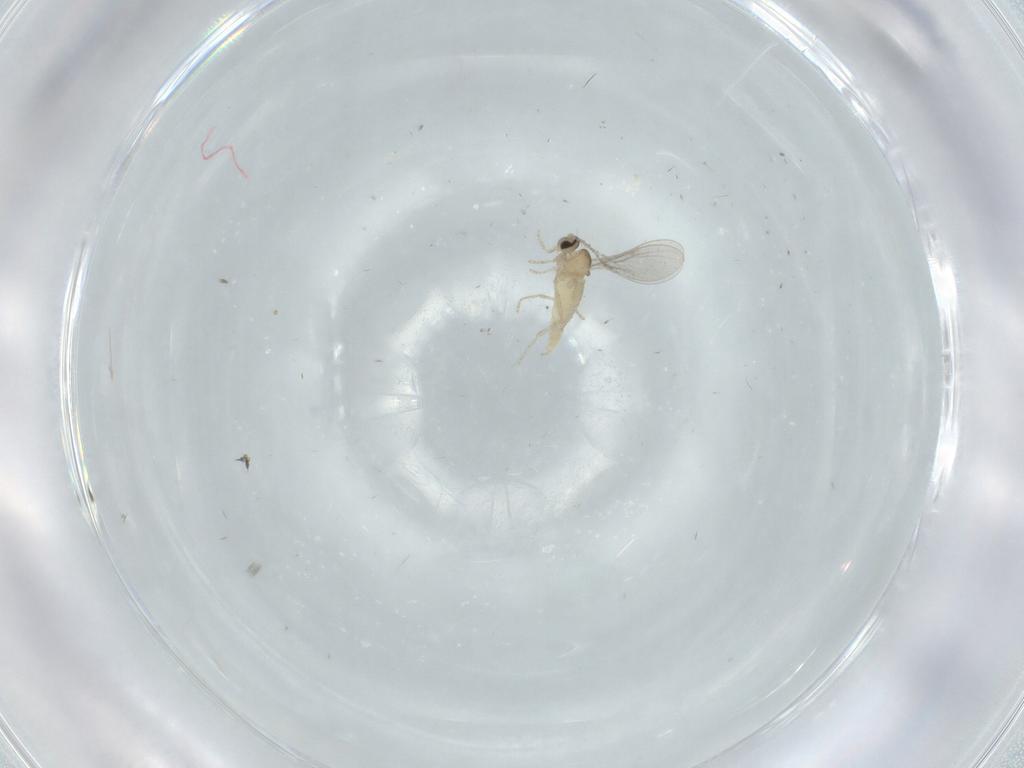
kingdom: Animalia
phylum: Arthropoda
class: Insecta
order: Diptera
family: Cecidomyiidae
